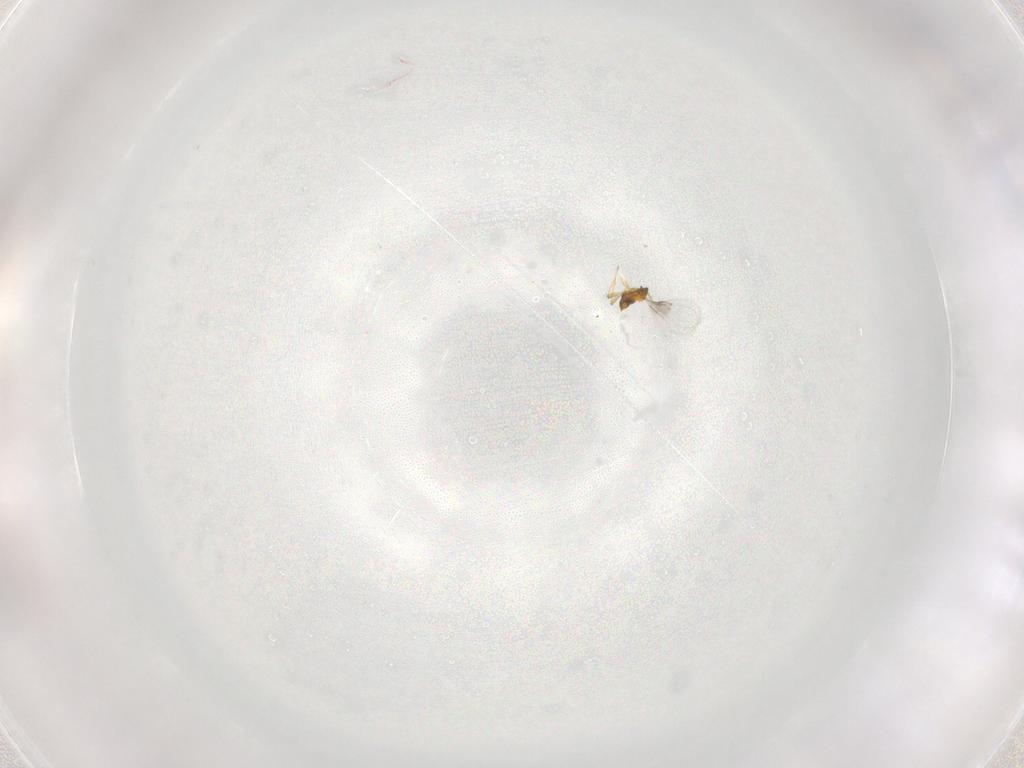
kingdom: Animalia
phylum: Arthropoda
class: Insecta
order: Hymenoptera
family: Trichogrammatidae
